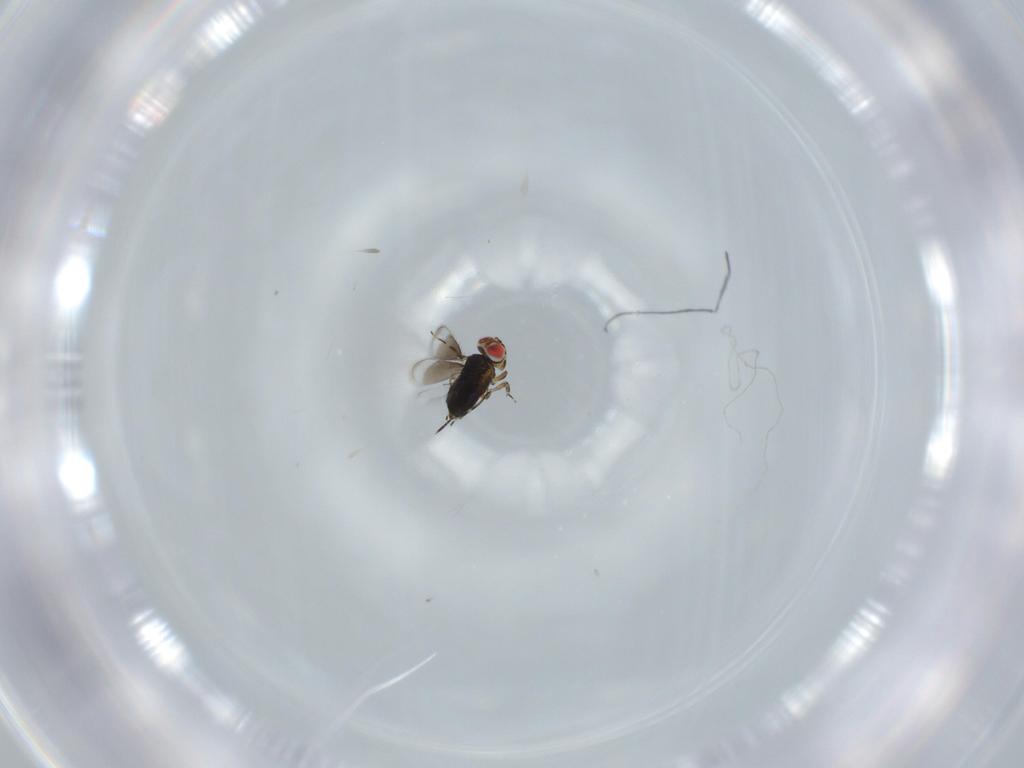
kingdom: Animalia
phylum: Arthropoda
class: Insecta
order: Hymenoptera
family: Azotidae
